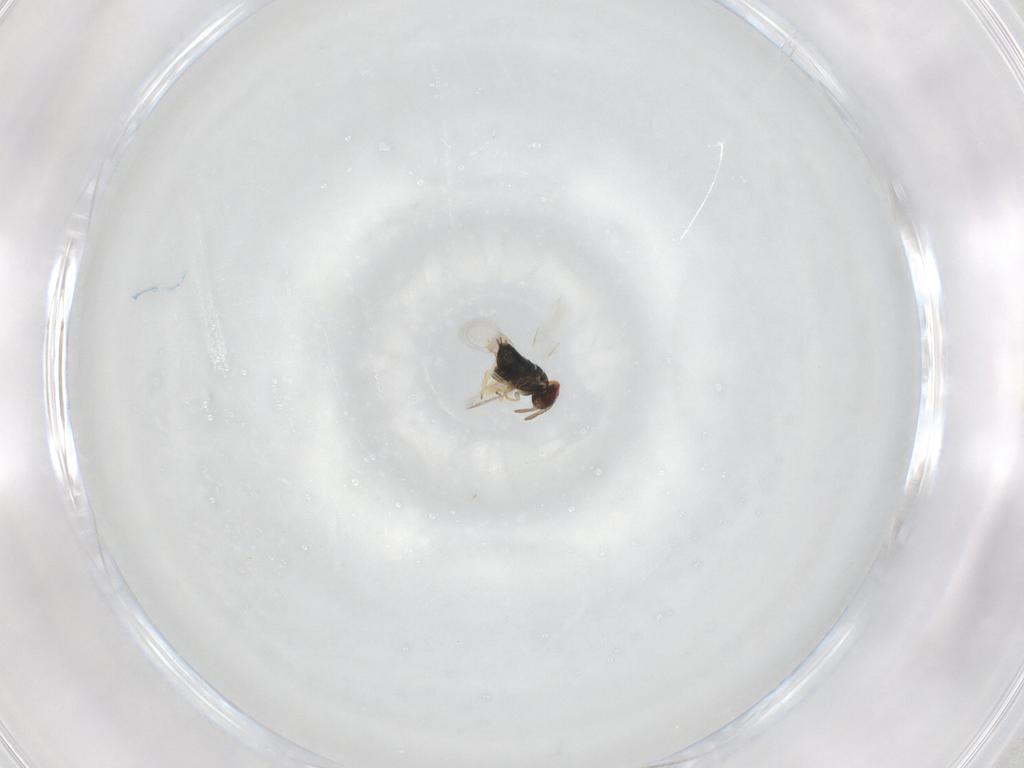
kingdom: Animalia
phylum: Arthropoda
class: Insecta
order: Hymenoptera
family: Azotidae
